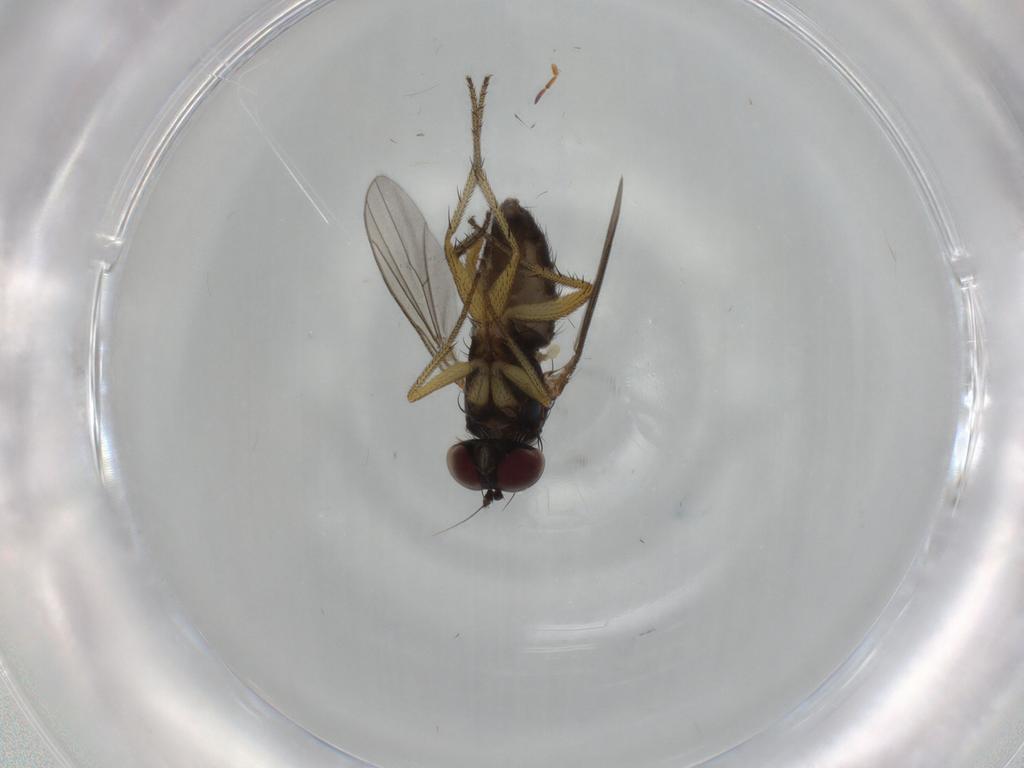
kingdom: Animalia
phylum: Arthropoda
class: Insecta
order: Diptera
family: Dolichopodidae
